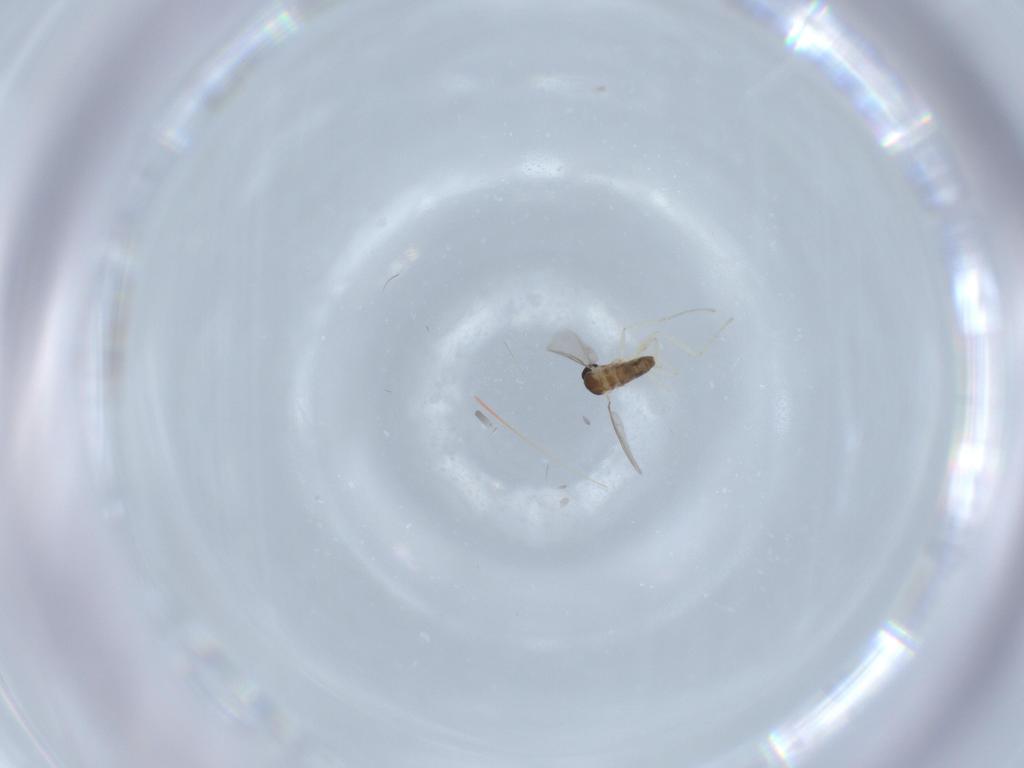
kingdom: Animalia
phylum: Arthropoda
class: Insecta
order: Diptera
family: Cecidomyiidae
